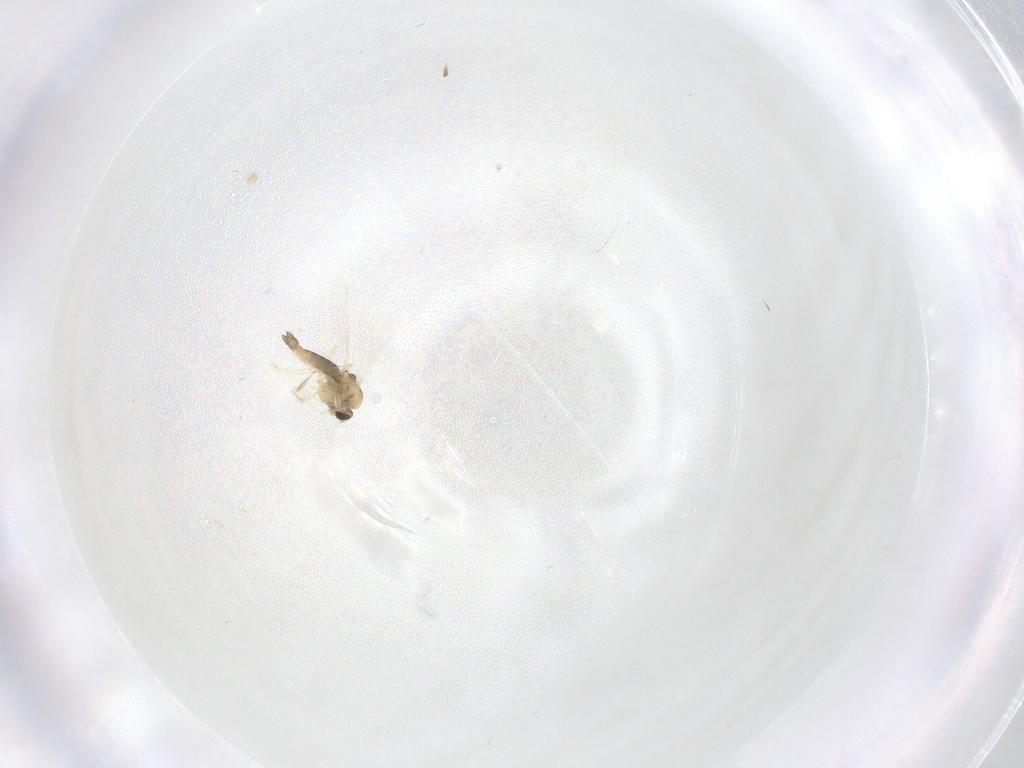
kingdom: Animalia
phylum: Arthropoda
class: Insecta
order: Diptera
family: Chironomidae
